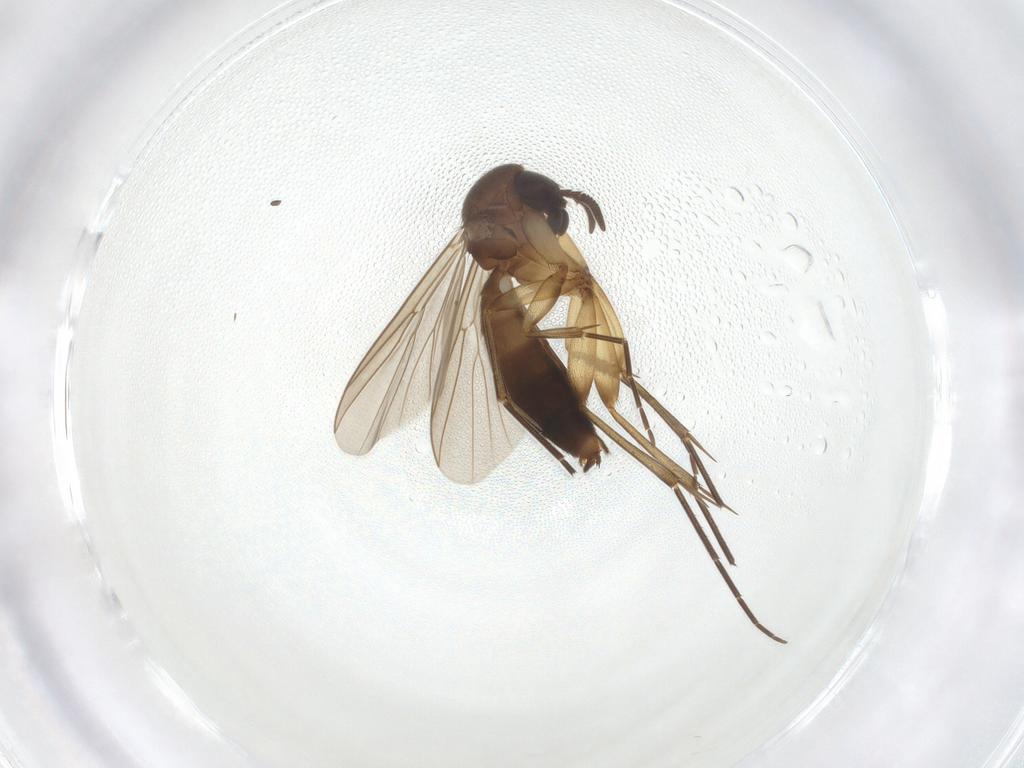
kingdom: Animalia
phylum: Arthropoda
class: Insecta
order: Diptera
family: Mycetophilidae
